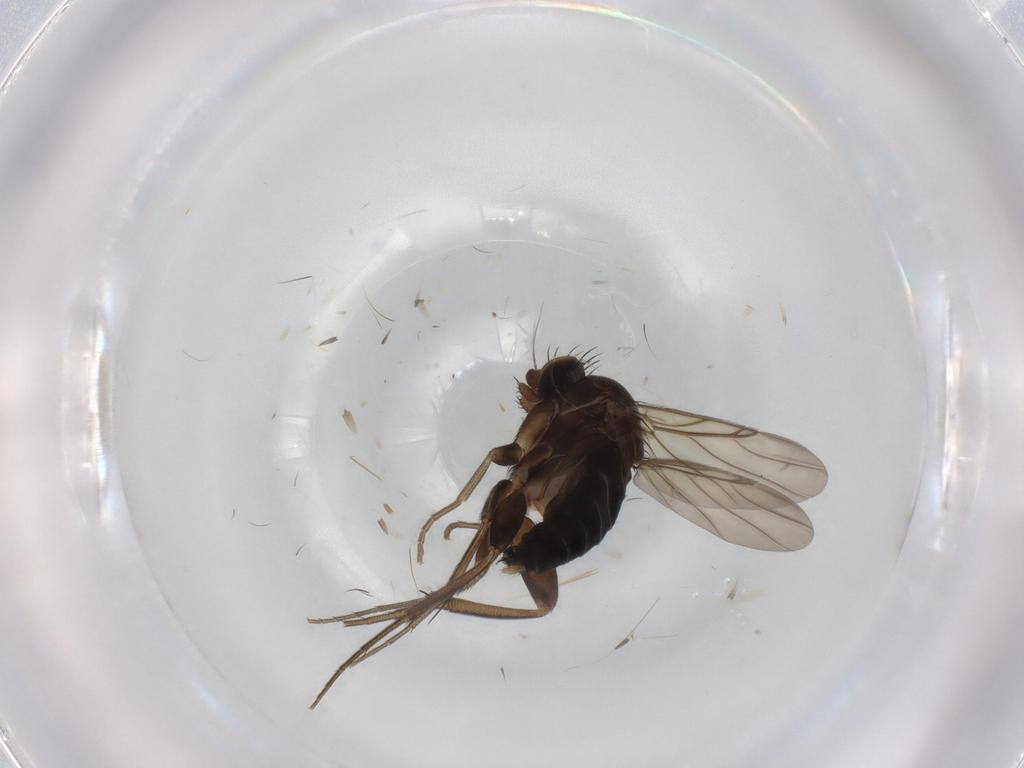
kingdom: Animalia
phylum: Arthropoda
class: Insecta
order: Diptera
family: Phoridae
